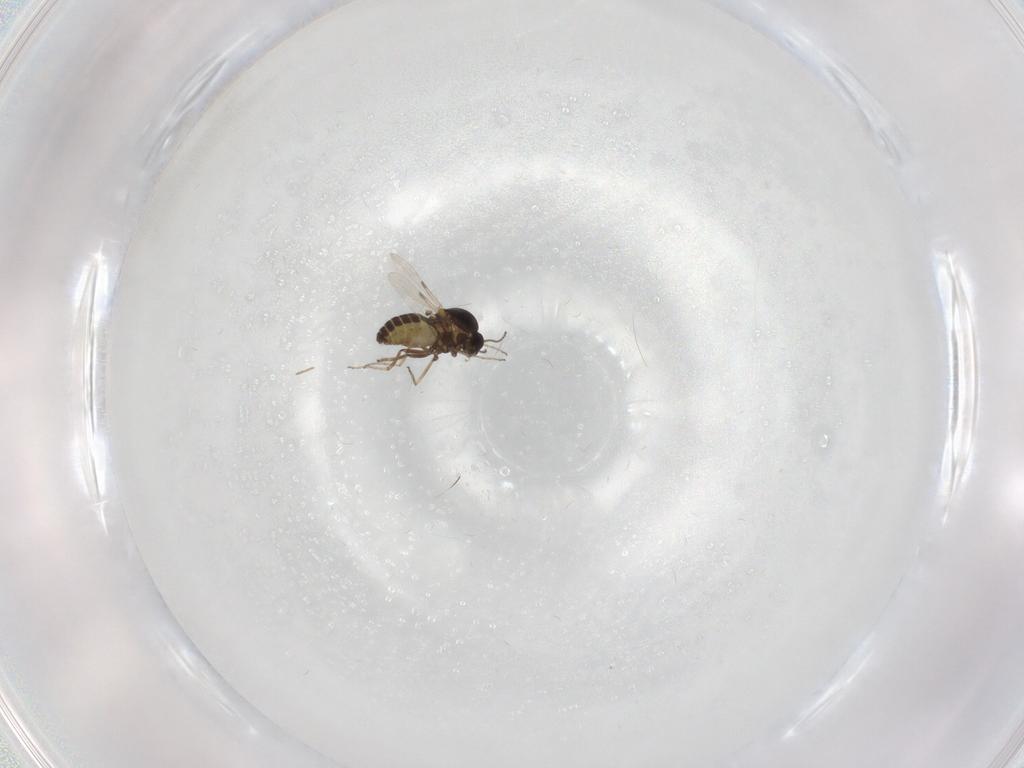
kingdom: Animalia
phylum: Arthropoda
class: Insecta
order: Diptera
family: Ceratopogonidae
